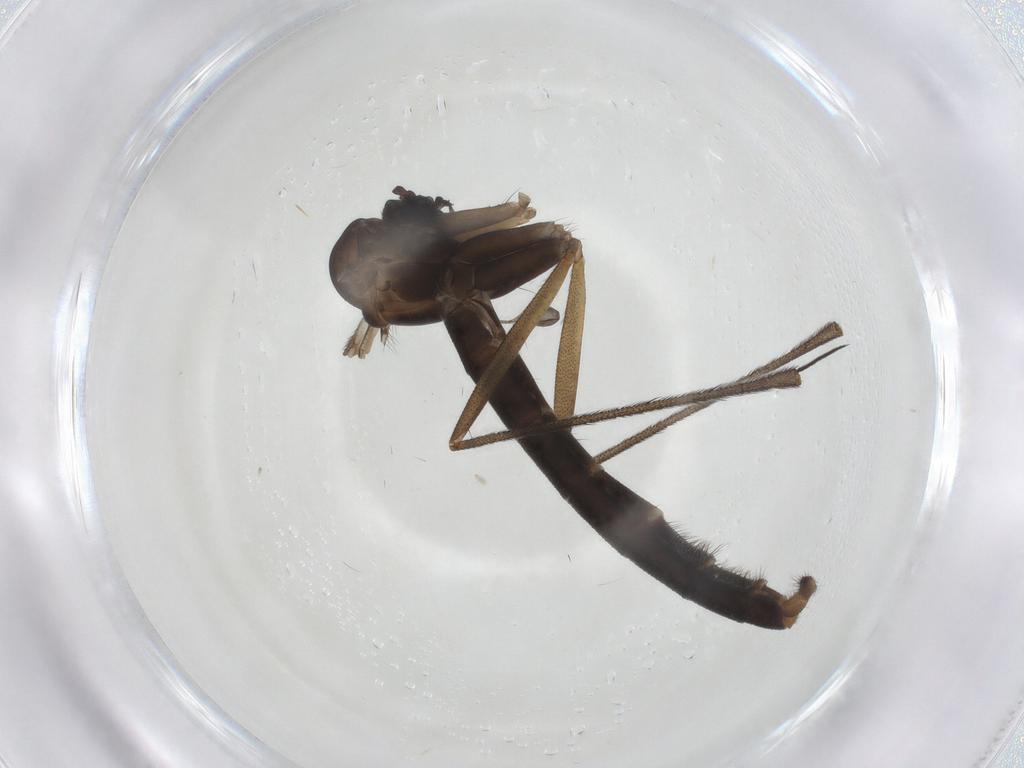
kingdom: Animalia
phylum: Arthropoda
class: Insecta
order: Diptera
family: Tachinidae
